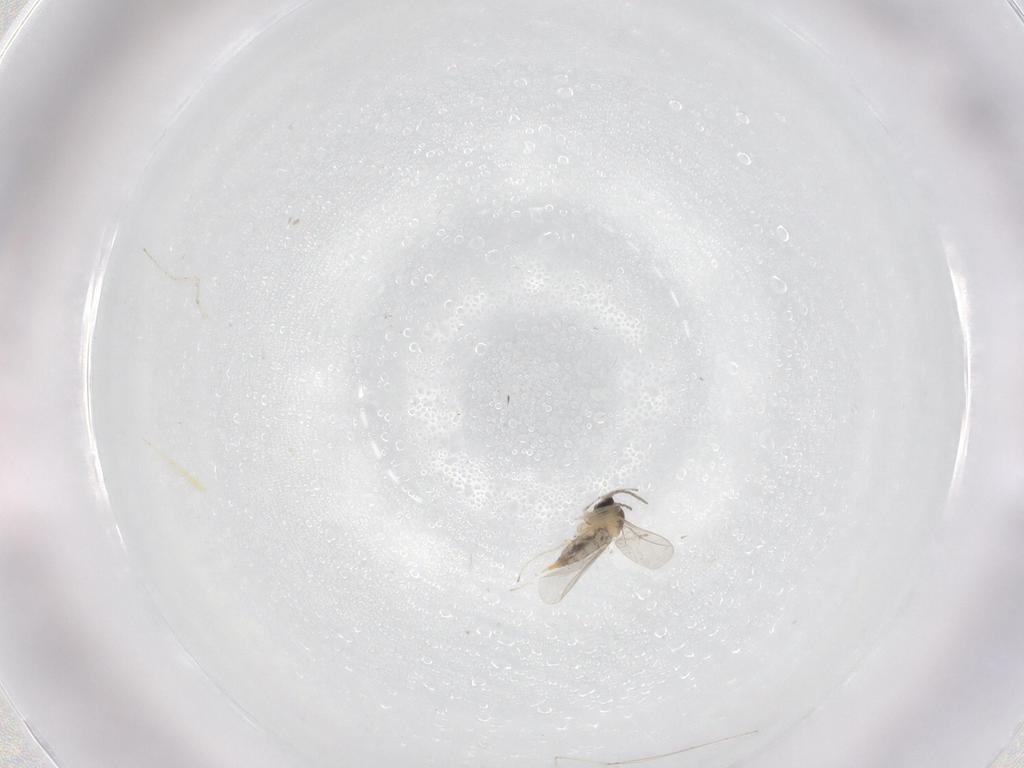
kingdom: Animalia
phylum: Arthropoda
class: Insecta
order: Diptera
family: Cecidomyiidae
